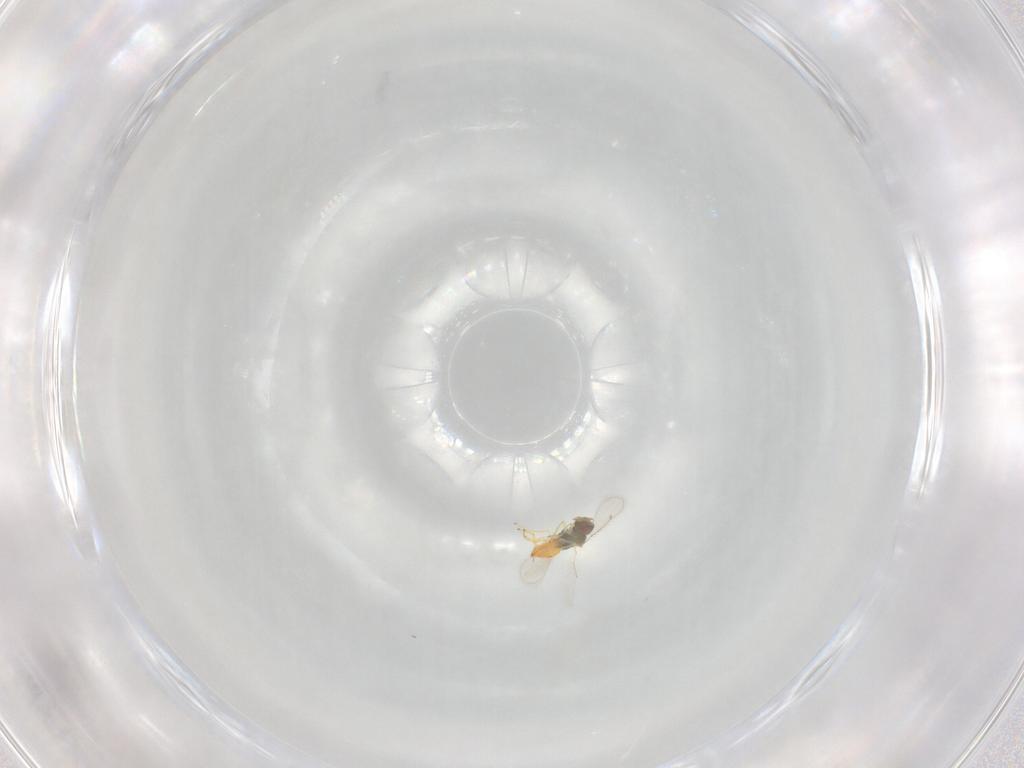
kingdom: Animalia
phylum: Arthropoda
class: Insecta
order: Hymenoptera
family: Eulophidae
